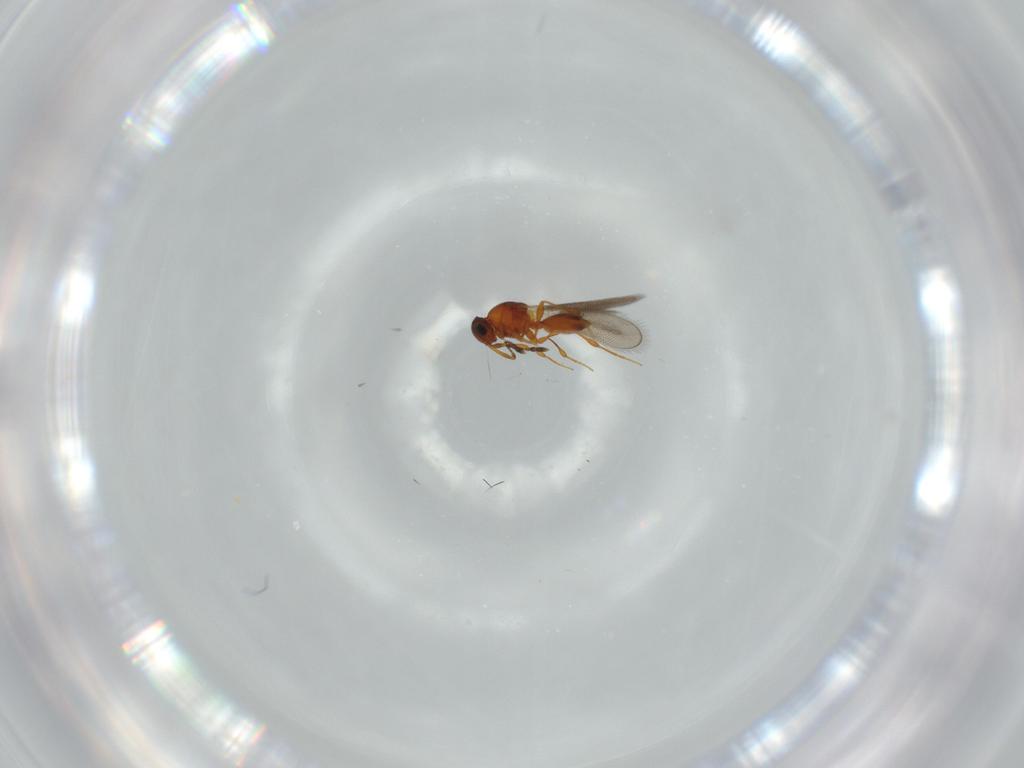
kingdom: Animalia
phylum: Arthropoda
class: Insecta
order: Hymenoptera
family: Platygastridae
